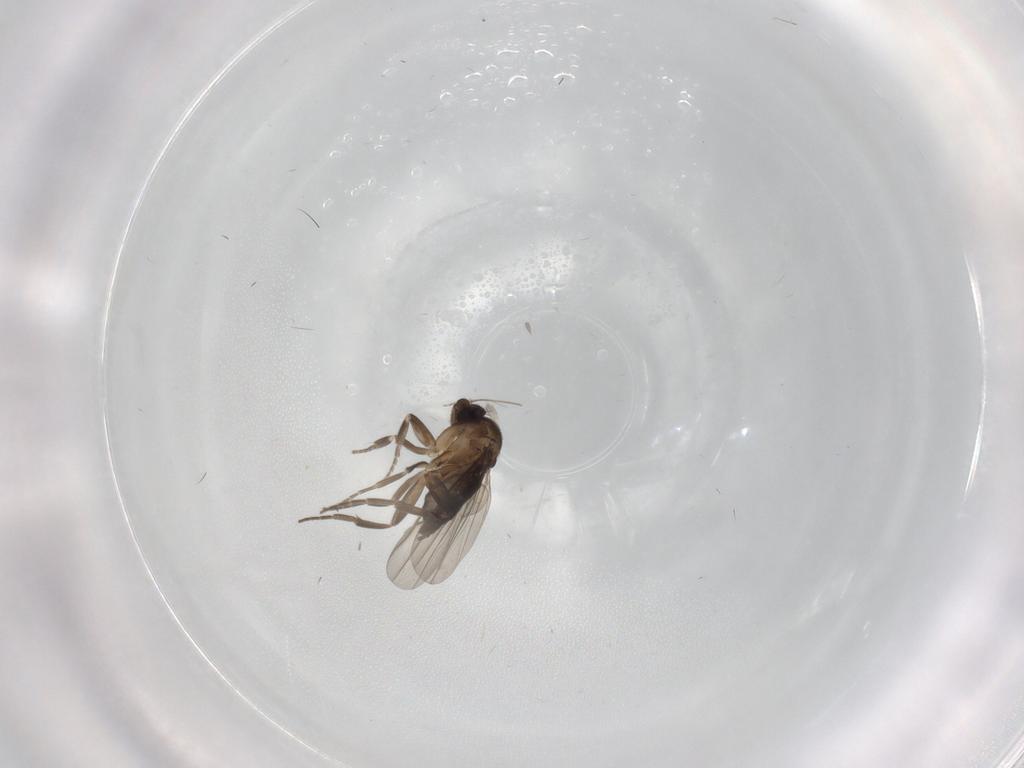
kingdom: Animalia
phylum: Arthropoda
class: Insecta
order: Diptera
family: Phoridae
